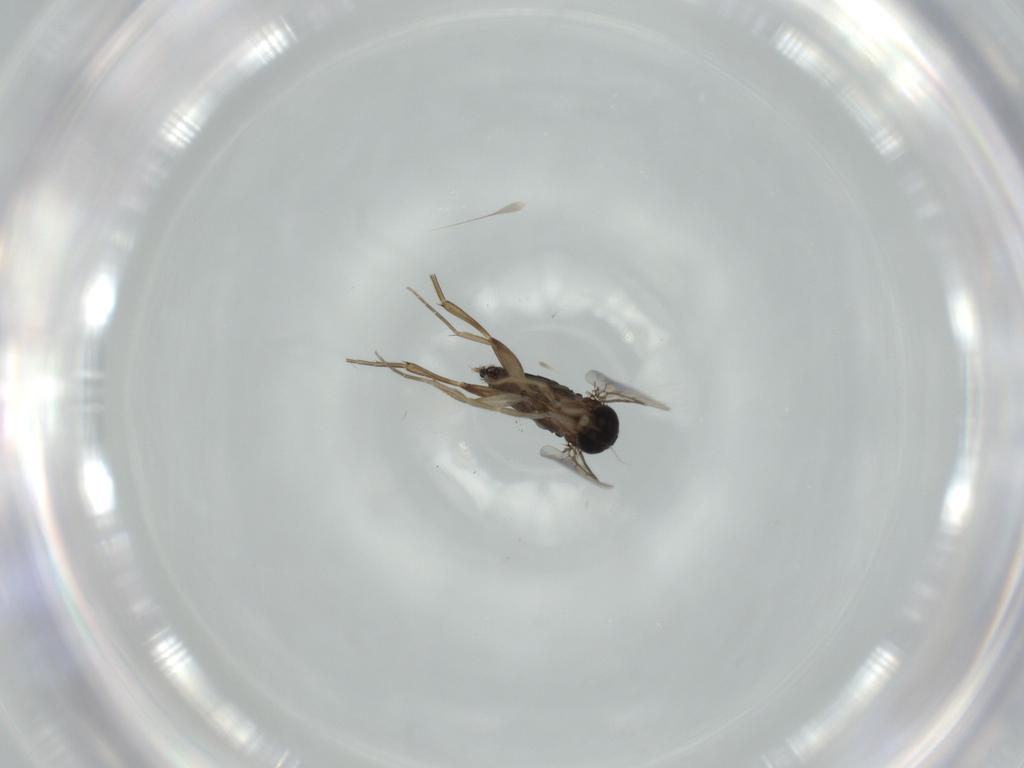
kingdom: Animalia
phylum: Arthropoda
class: Insecta
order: Diptera
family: Phoridae
